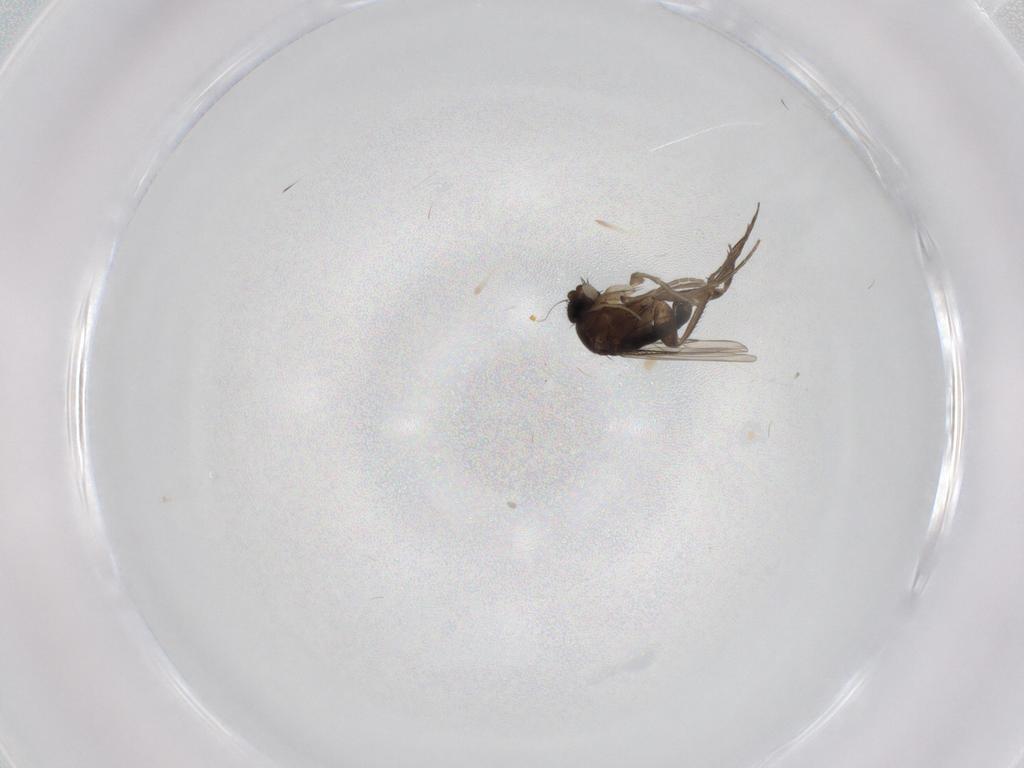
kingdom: Animalia
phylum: Arthropoda
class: Insecta
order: Diptera
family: Phoridae
